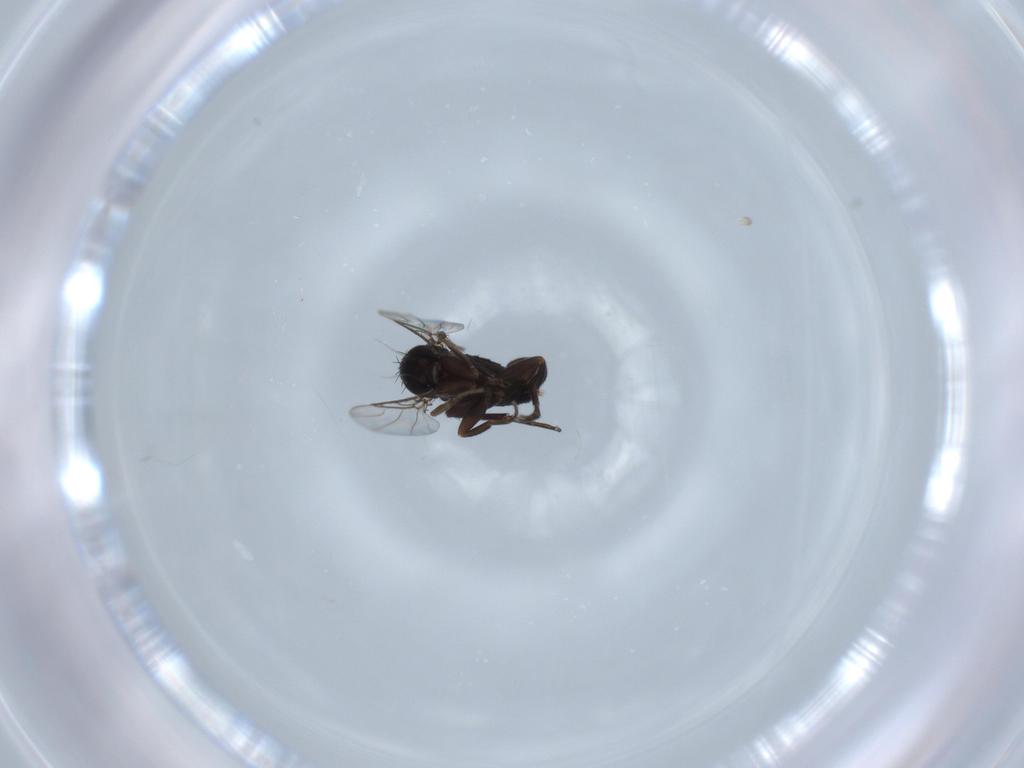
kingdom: Animalia
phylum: Arthropoda
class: Insecta
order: Diptera
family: Phoridae
